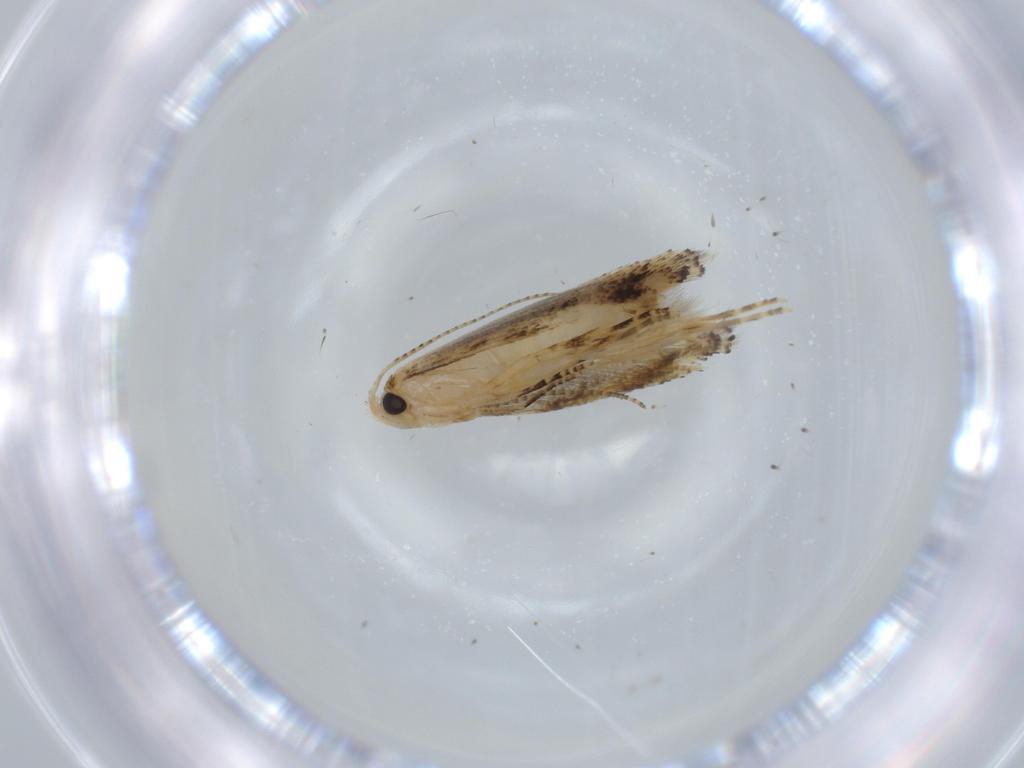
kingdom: Animalia
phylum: Arthropoda
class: Insecta
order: Lepidoptera
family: Bucculatricidae
